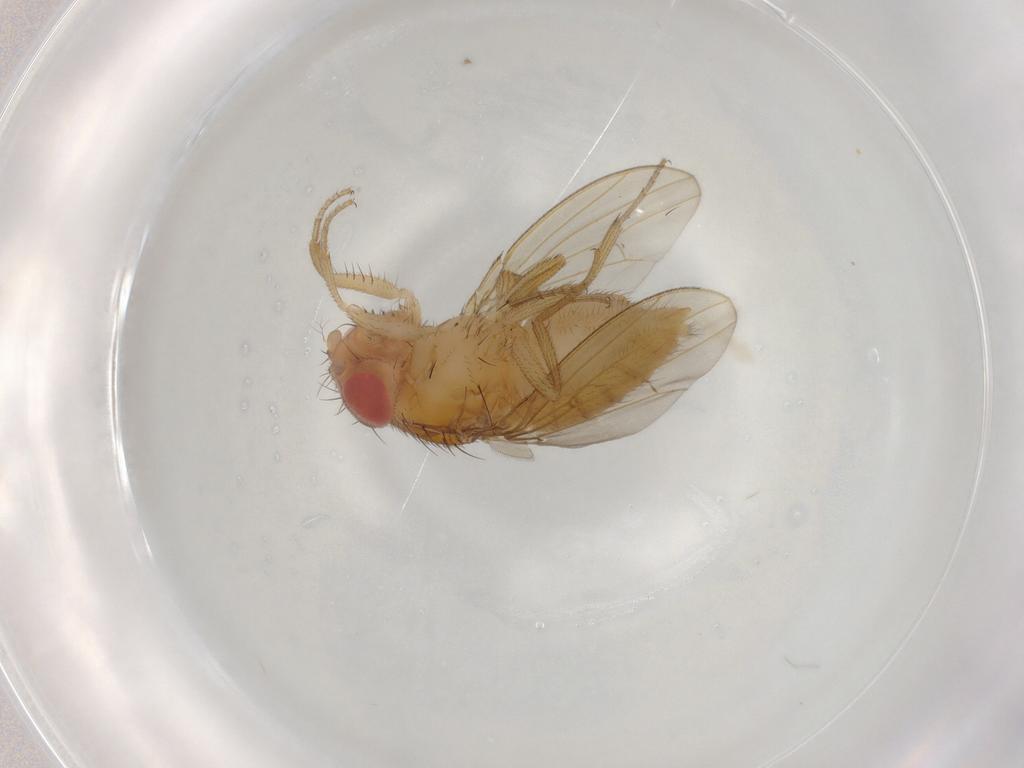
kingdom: Animalia
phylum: Arthropoda
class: Insecta
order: Diptera
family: Drosophilidae
